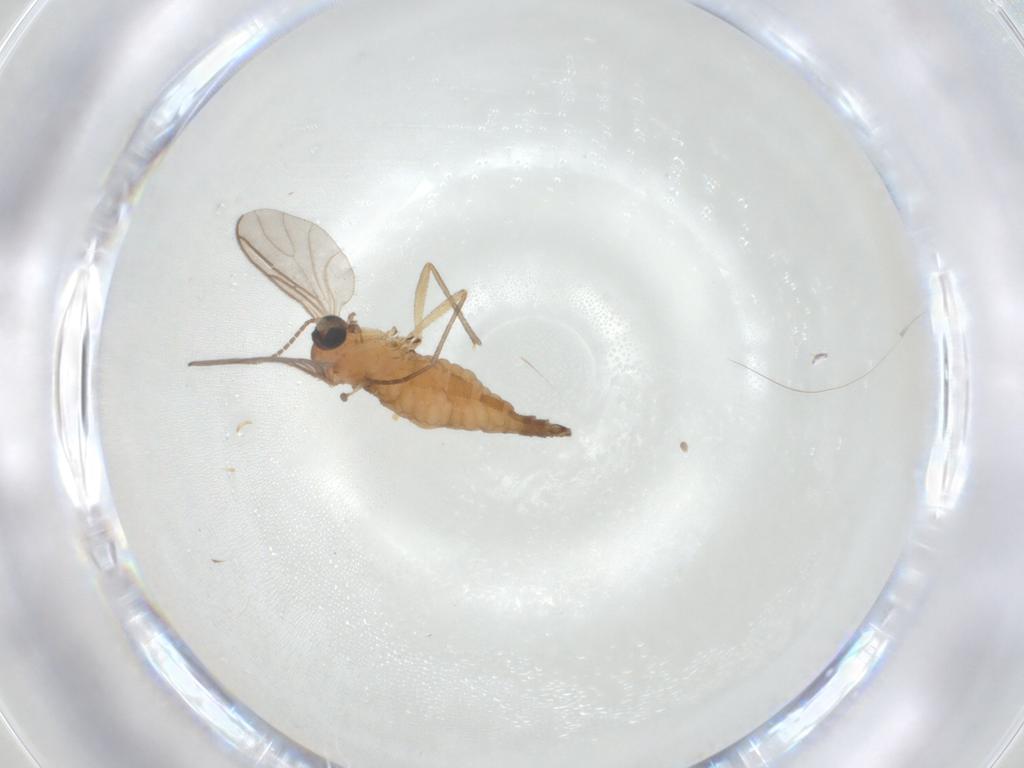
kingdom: Animalia
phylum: Arthropoda
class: Insecta
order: Diptera
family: Sciaridae
